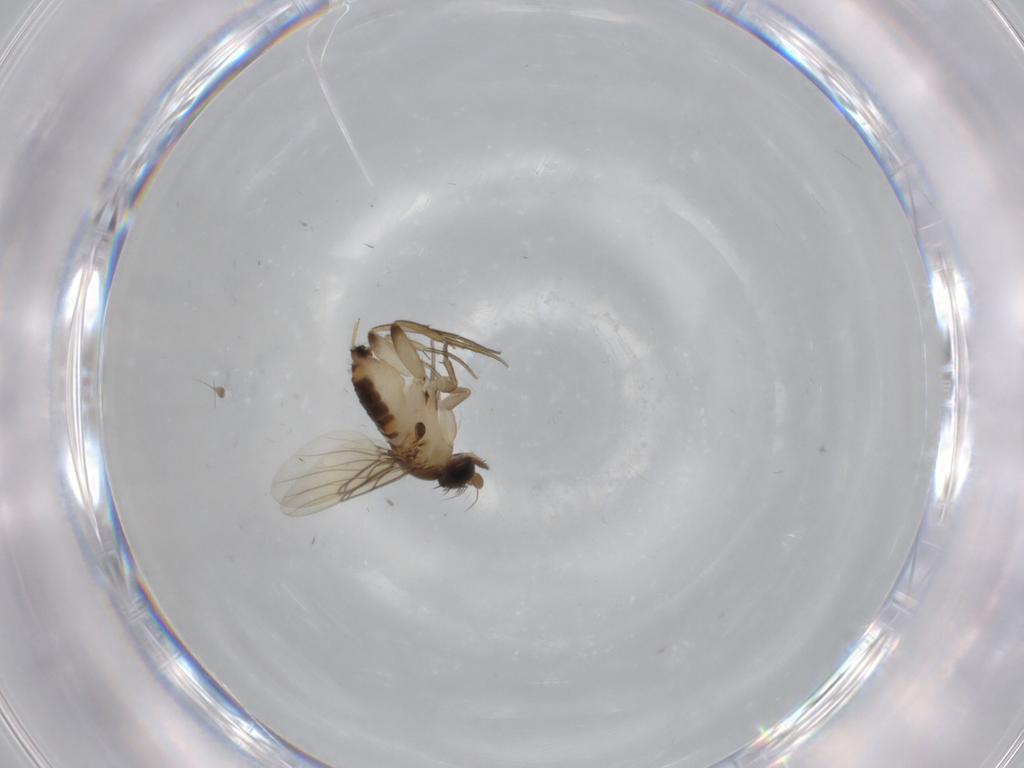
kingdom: Animalia
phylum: Arthropoda
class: Insecta
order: Diptera
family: Phoridae
